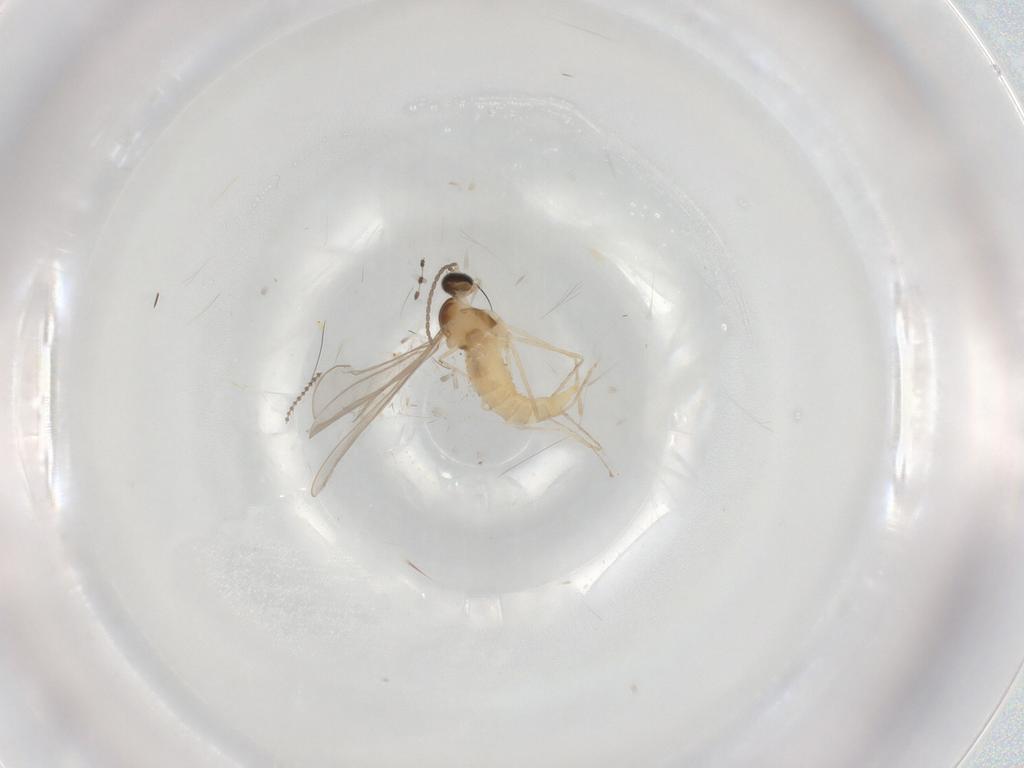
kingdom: Animalia
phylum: Arthropoda
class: Insecta
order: Diptera
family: Cecidomyiidae
